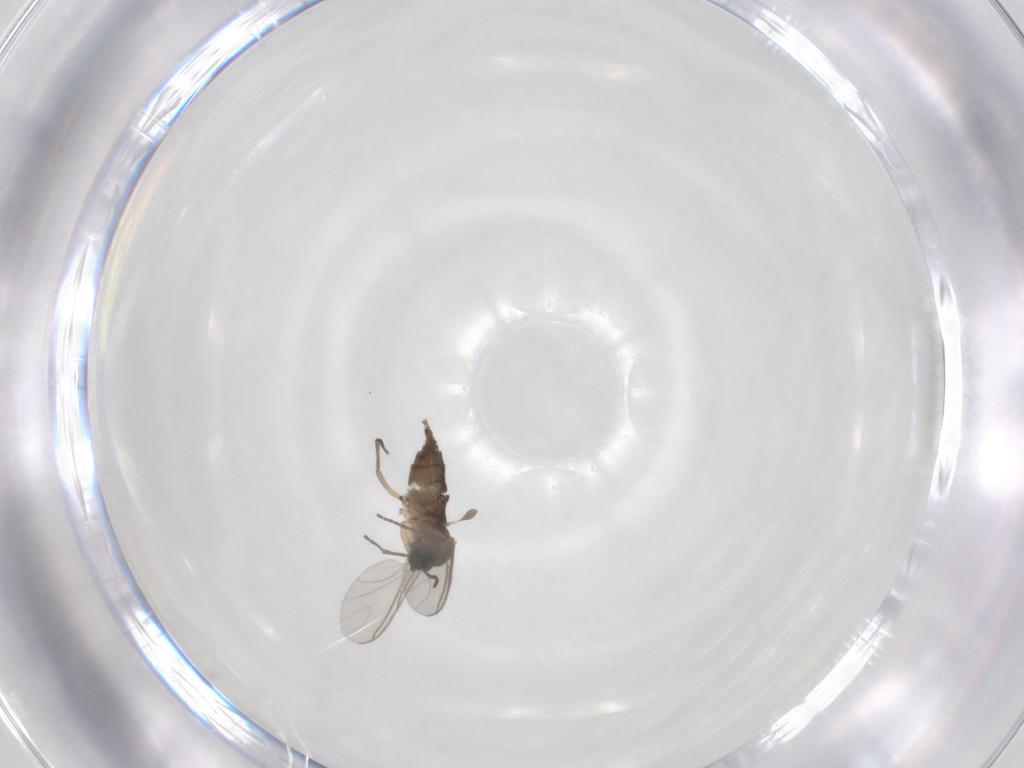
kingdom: Animalia
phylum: Arthropoda
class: Insecta
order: Diptera
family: Sciaridae
